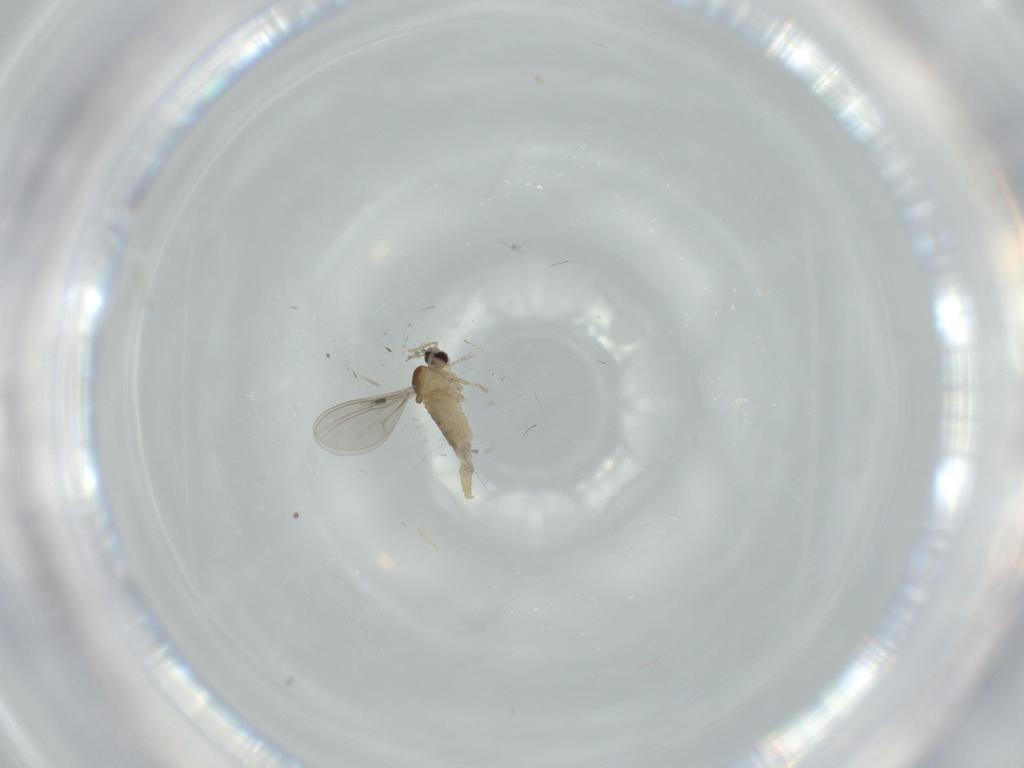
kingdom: Animalia
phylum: Arthropoda
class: Insecta
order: Diptera
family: Cecidomyiidae
